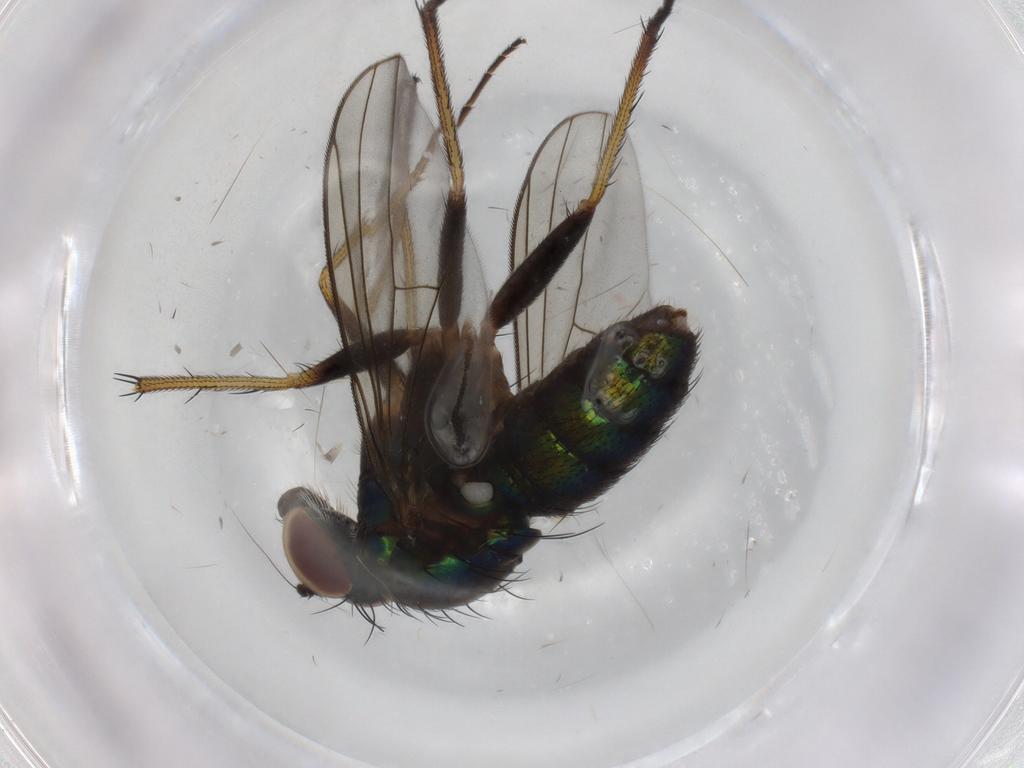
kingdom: Animalia
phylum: Arthropoda
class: Insecta
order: Diptera
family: Dolichopodidae
